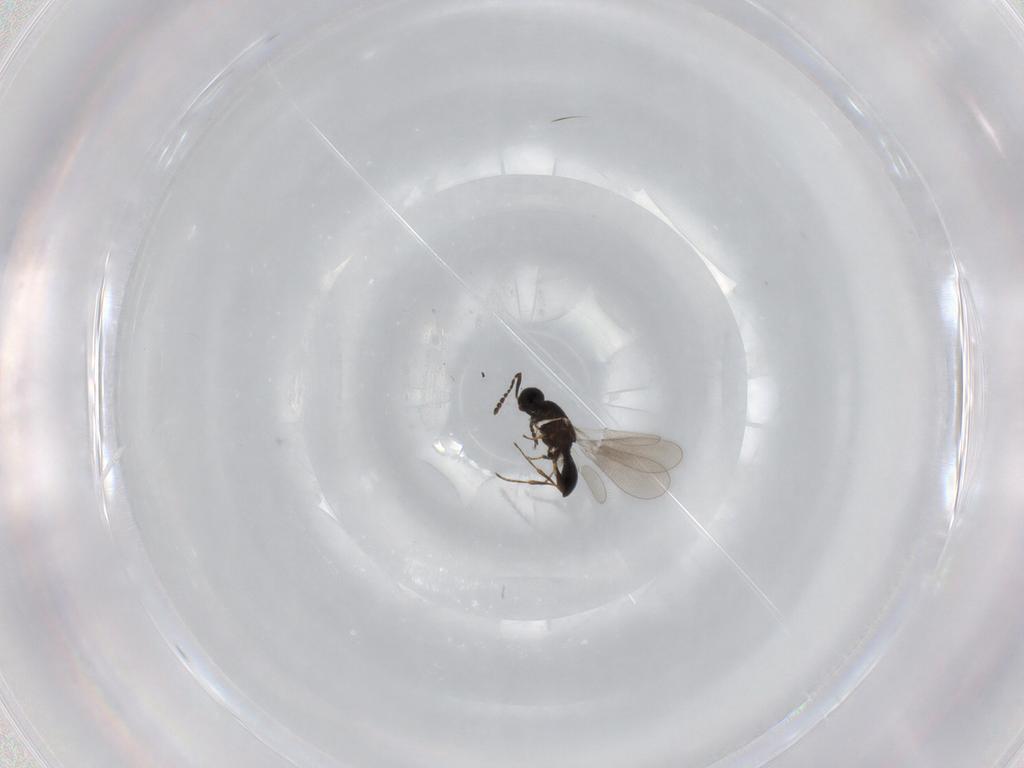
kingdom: Animalia
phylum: Arthropoda
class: Insecta
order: Hymenoptera
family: Platygastridae
